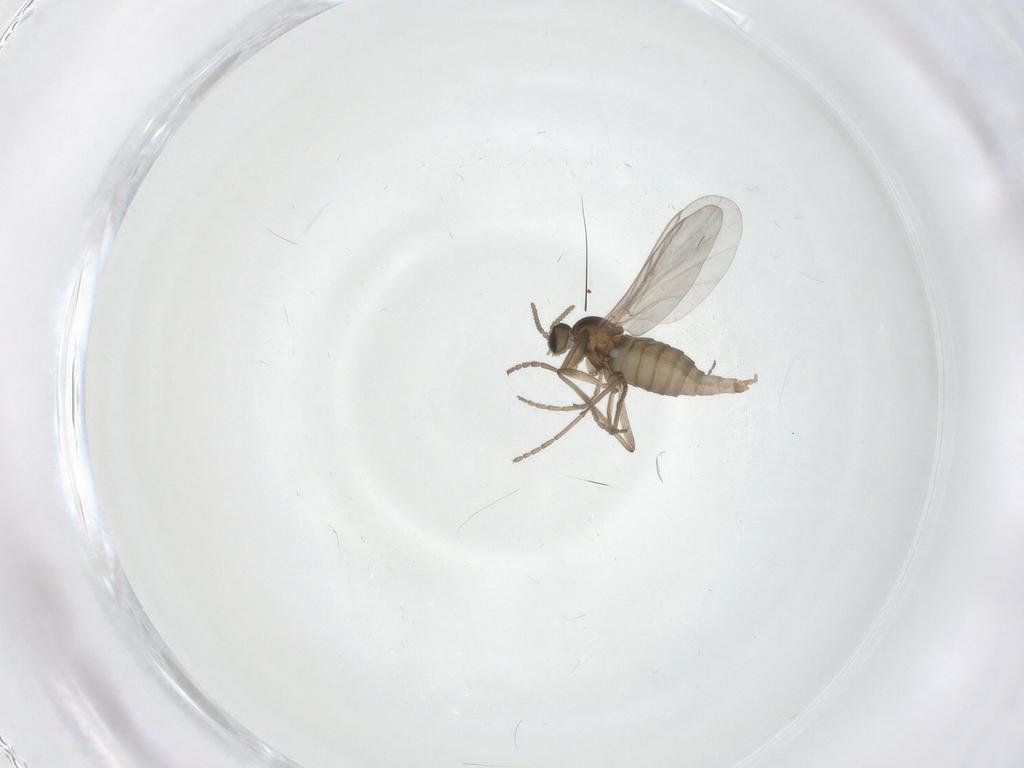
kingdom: Animalia
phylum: Arthropoda
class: Insecta
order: Diptera
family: Cecidomyiidae
